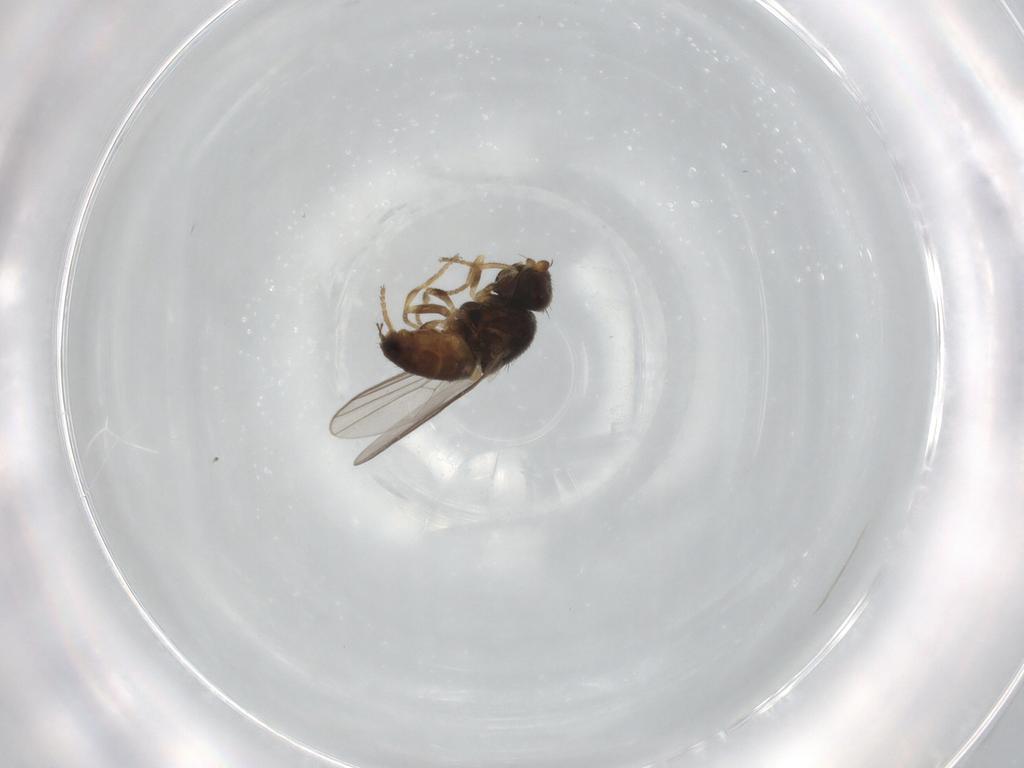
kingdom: Animalia
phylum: Arthropoda
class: Insecta
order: Diptera
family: Chloropidae
